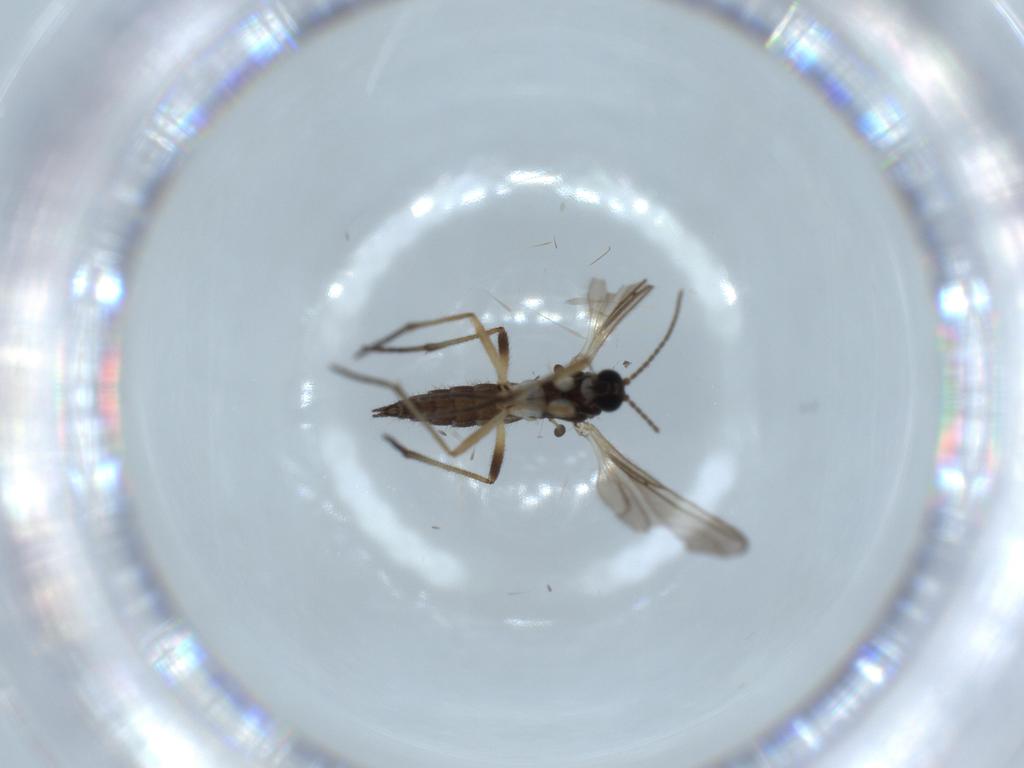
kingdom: Animalia
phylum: Arthropoda
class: Insecta
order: Diptera
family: Sciaridae
